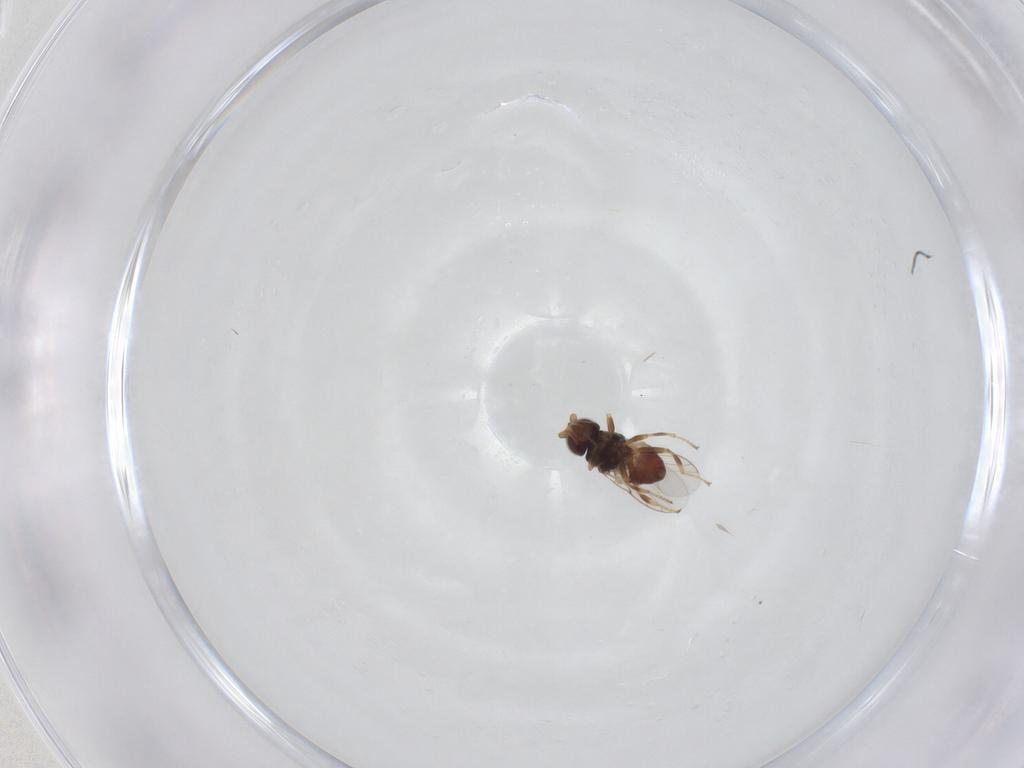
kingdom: Animalia
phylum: Arthropoda
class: Insecta
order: Diptera
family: Chloropidae
